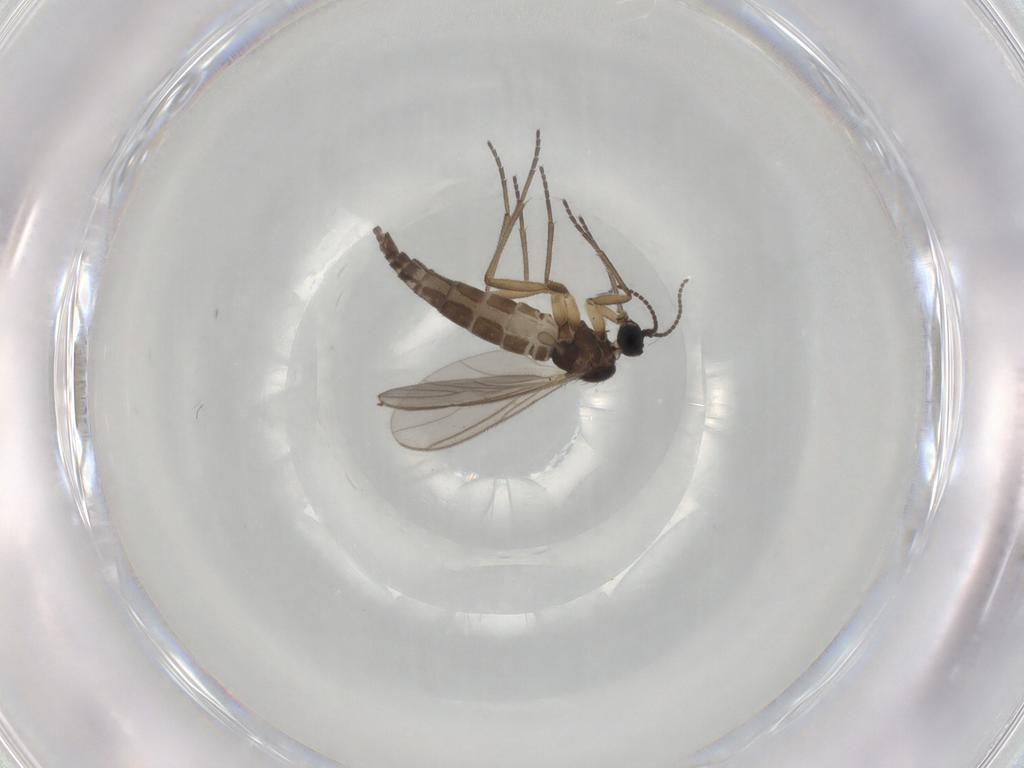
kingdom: Animalia
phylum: Arthropoda
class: Insecta
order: Diptera
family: Sciaridae
